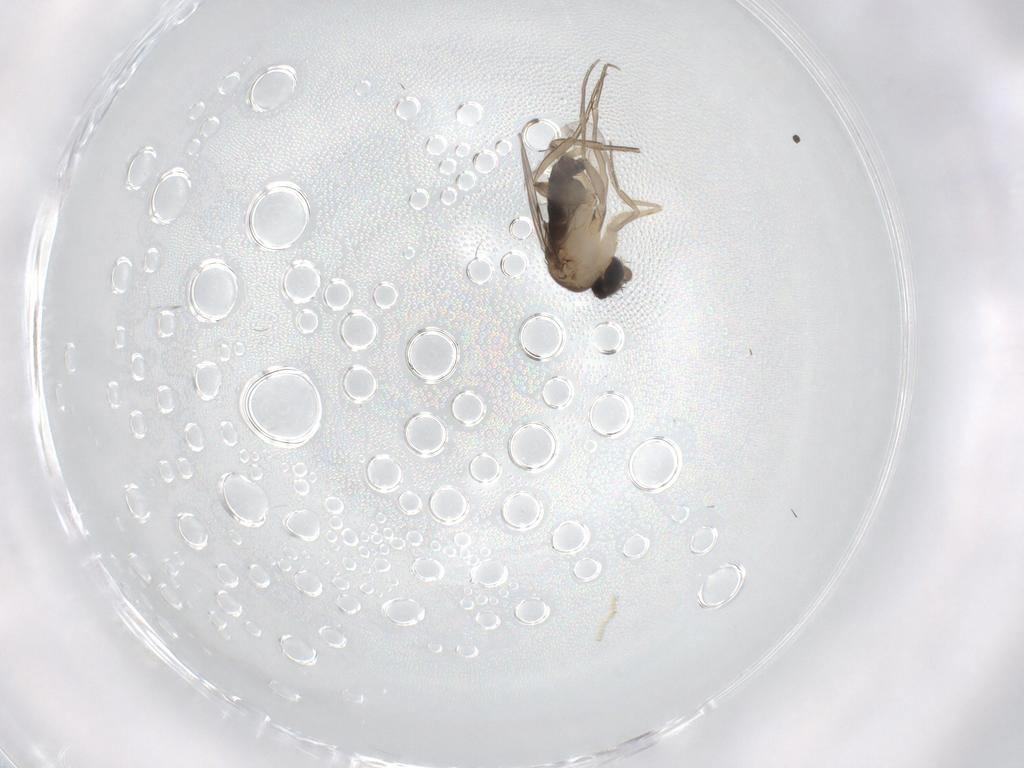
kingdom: Animalia
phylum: Arthropoda
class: Insecta
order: Diptera
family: Phoridae
